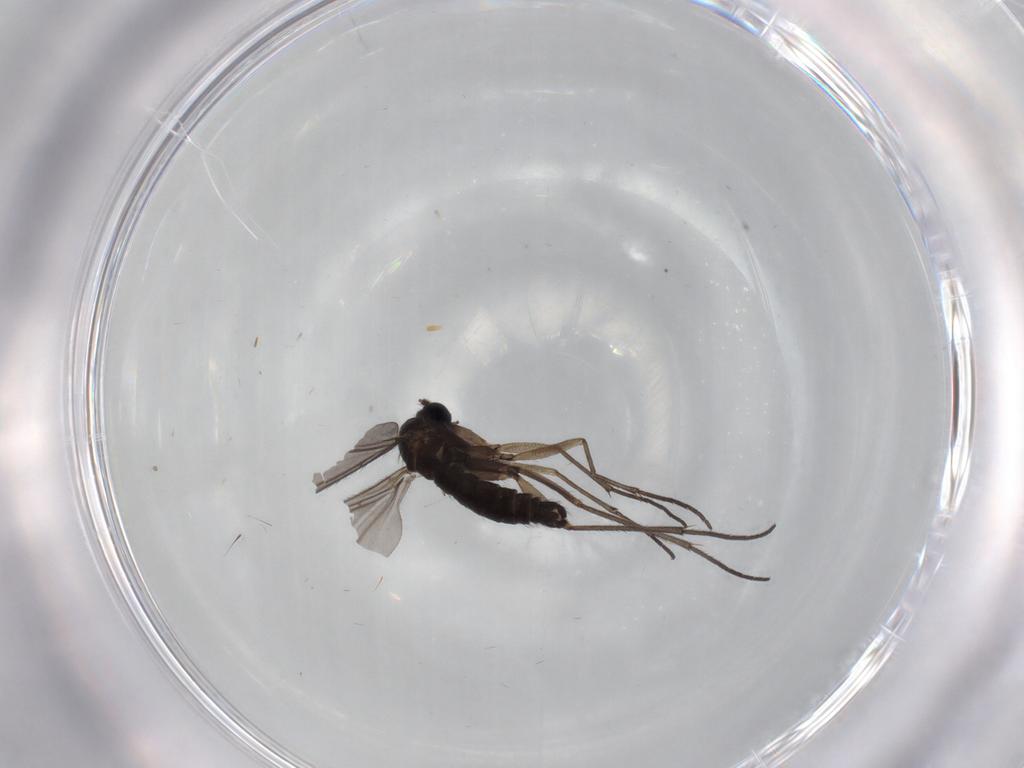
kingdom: Animalia
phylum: Arthropoda
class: Insecta
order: Diptera
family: Sciaridae
